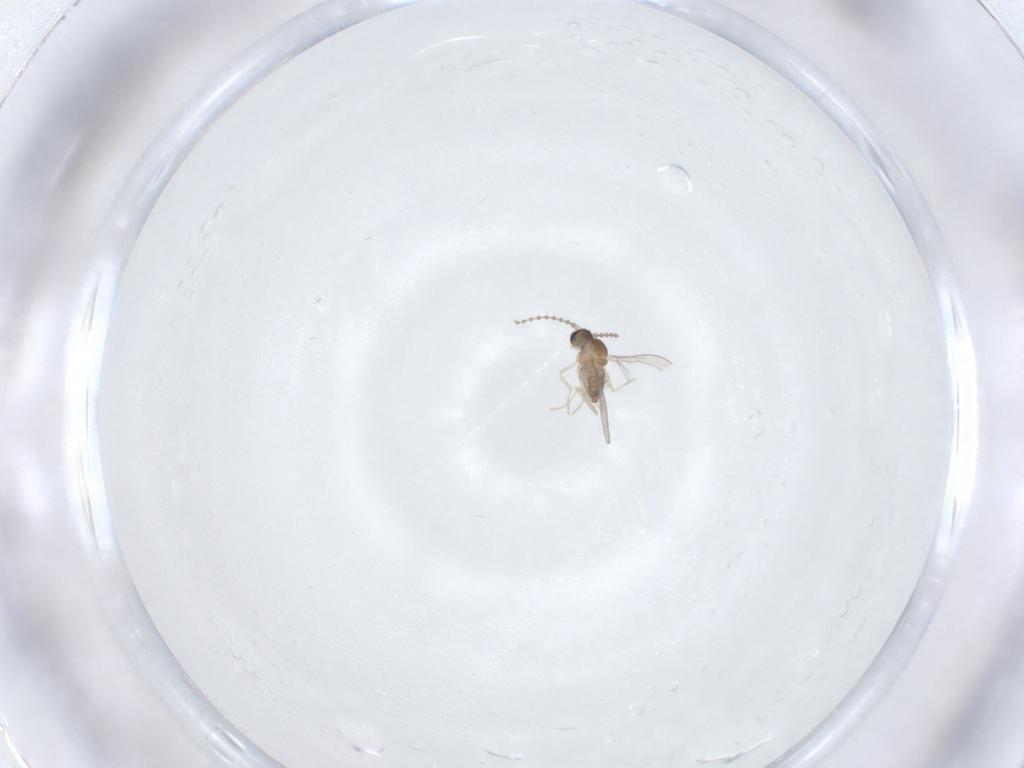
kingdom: Animalia
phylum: Arthropoda
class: Insecta
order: Diptera
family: Cecidomyiidae
